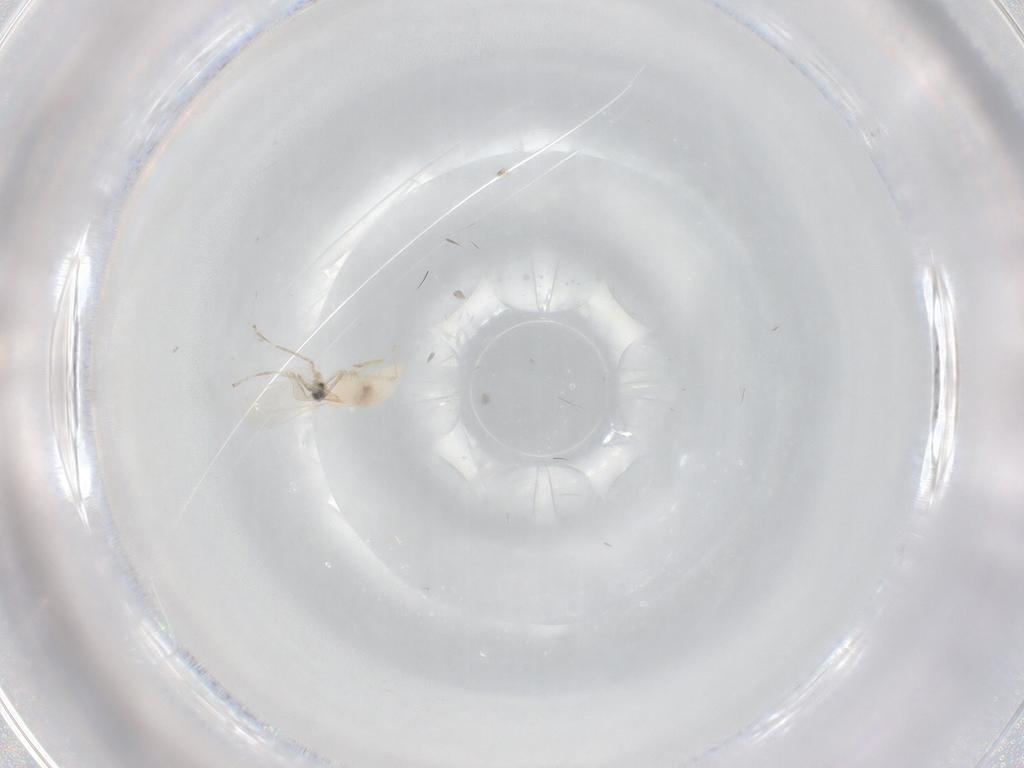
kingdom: Animalia
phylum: Arthropoda
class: Insecta
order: Diptera
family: Cecidomyiidae
